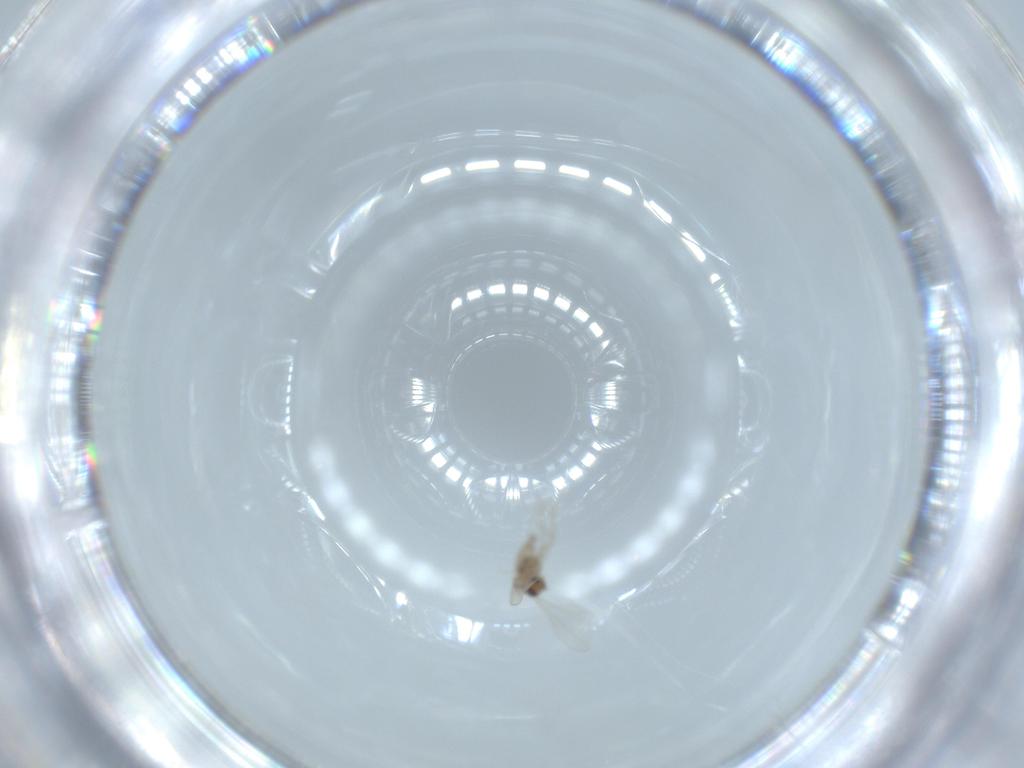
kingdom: Animalia
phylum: Arthropoda
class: Insecta
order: Diptera
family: Sciaridae
